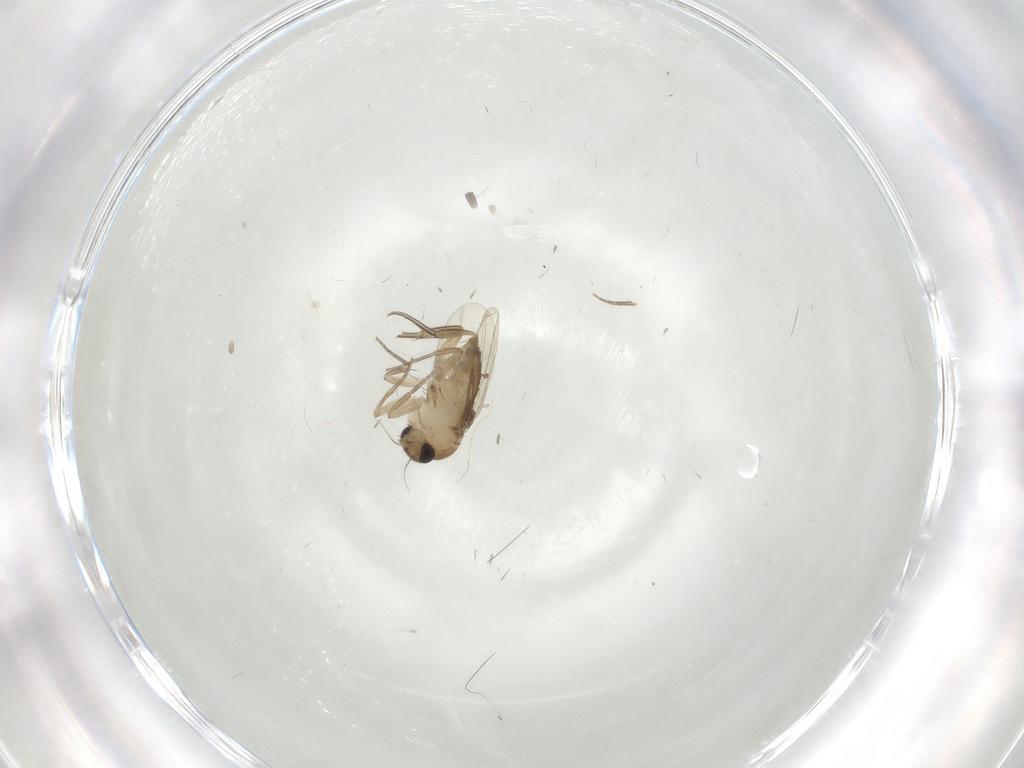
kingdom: Animalia
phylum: Arthropoda
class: Insecta
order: Diptera
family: Phoridae
